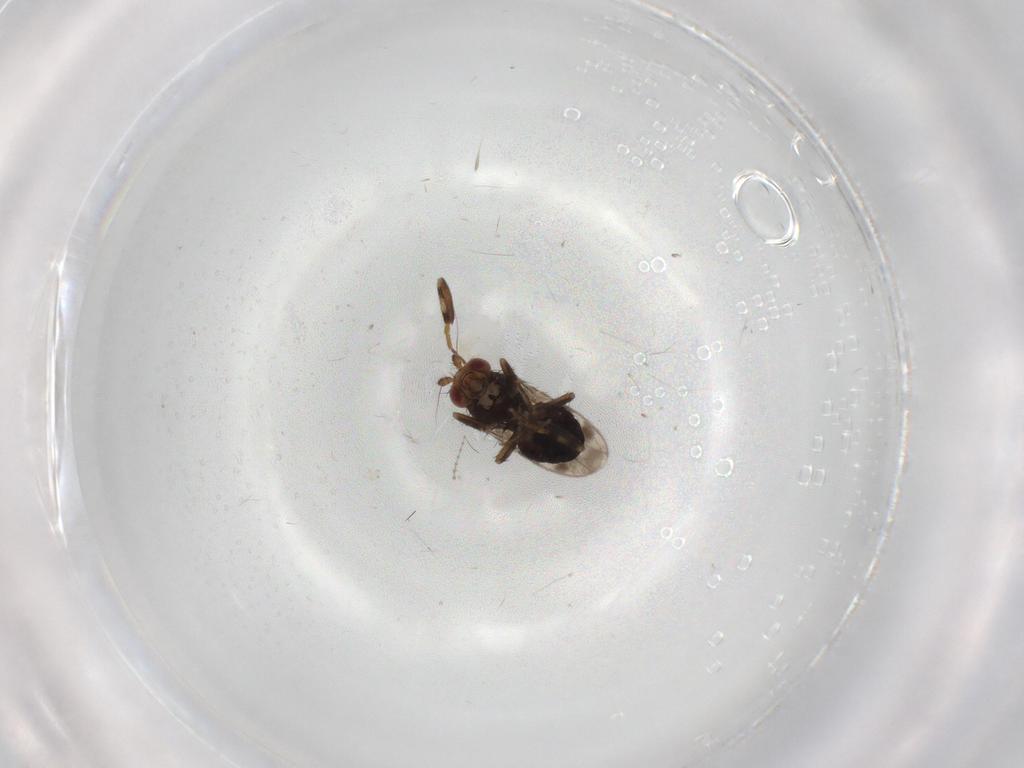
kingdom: Animalia
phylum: Arthropoda
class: Insecta
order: Diptera
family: Sphaeroceridae
